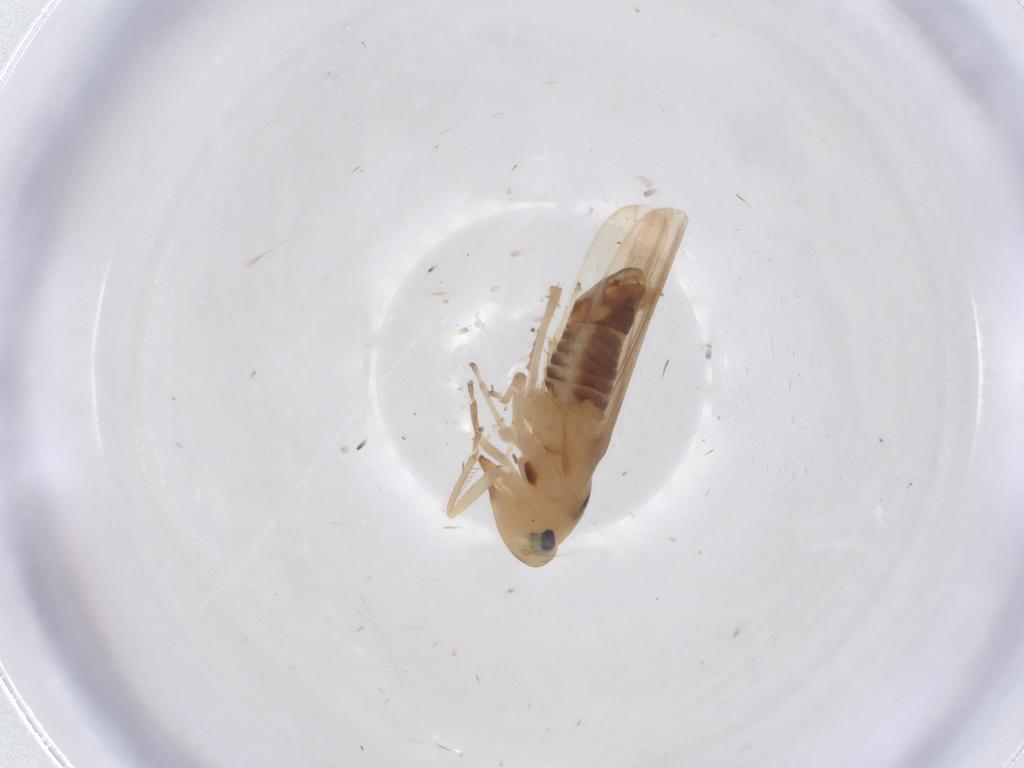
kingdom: Animalia
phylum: Arthropoda
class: Insecta
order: Hemiptera
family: Cicadellidae
